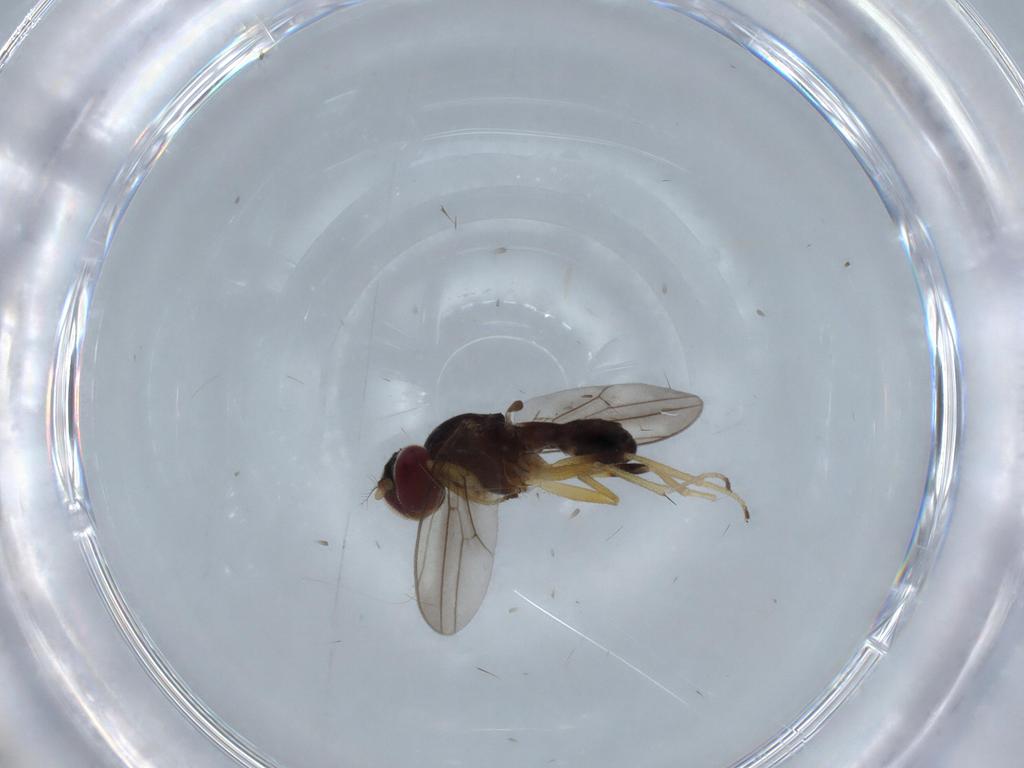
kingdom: Animalia
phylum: Arthropoda
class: Insecta
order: Diptera
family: Periscelididae
